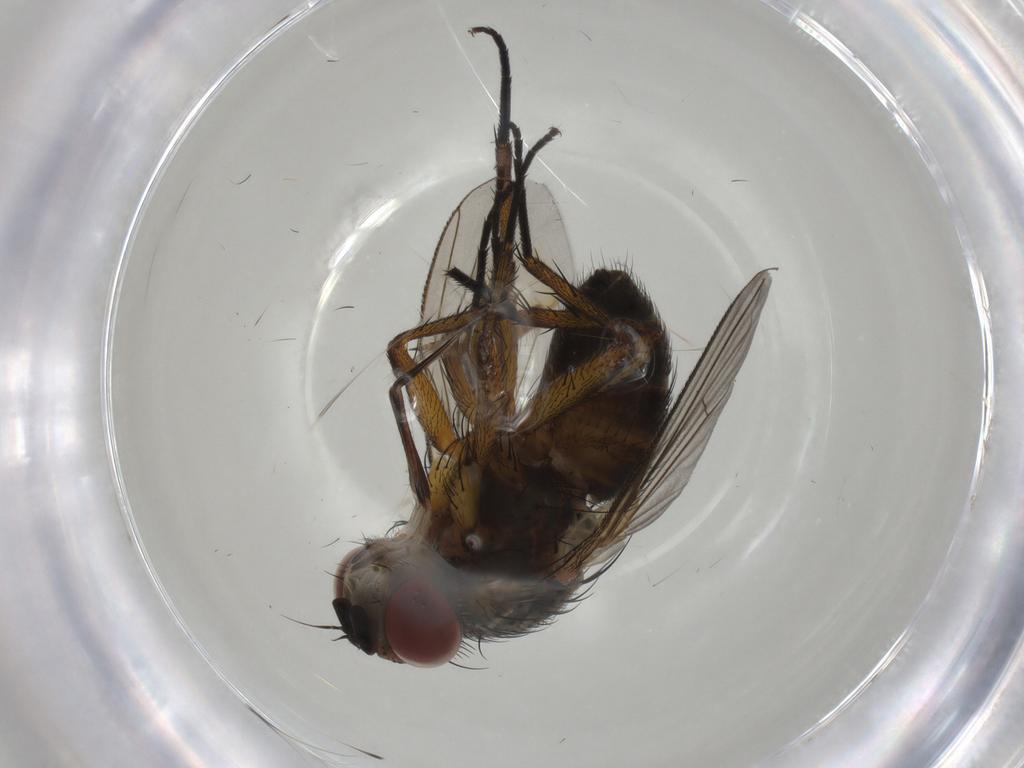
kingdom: Animalia
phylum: Arthropoda
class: Insecta
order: Diptera
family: Tachinidae
